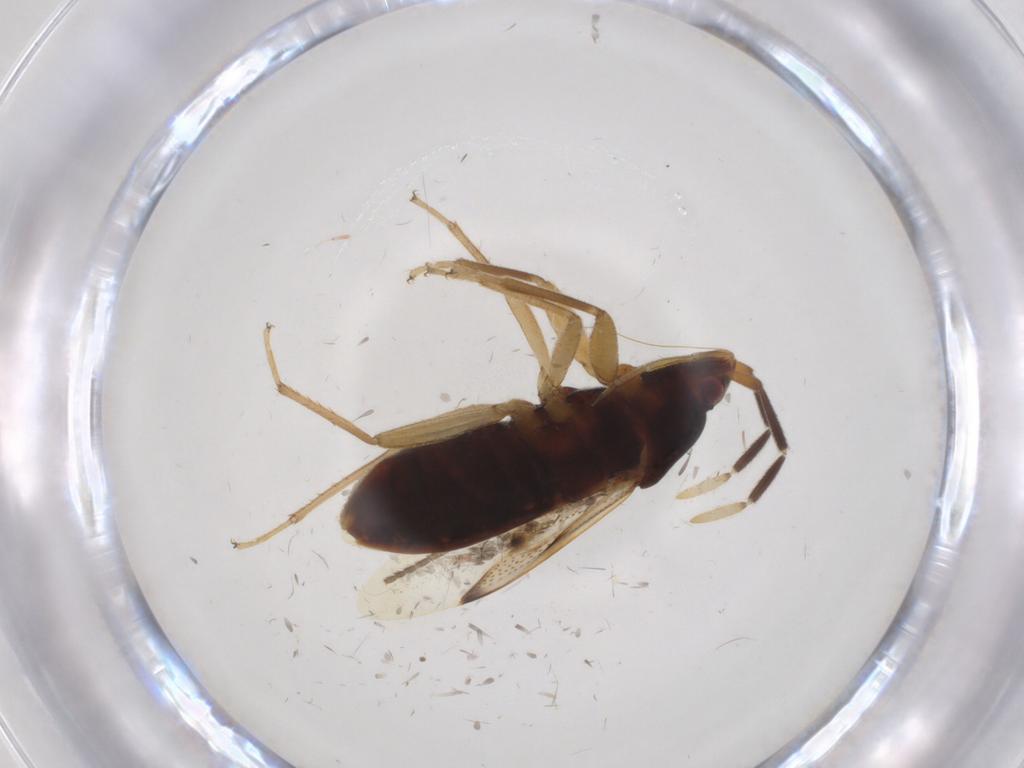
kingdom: Animalia
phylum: Arthropoda
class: Insecta
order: Hemiptera
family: Rhyparochromidae
